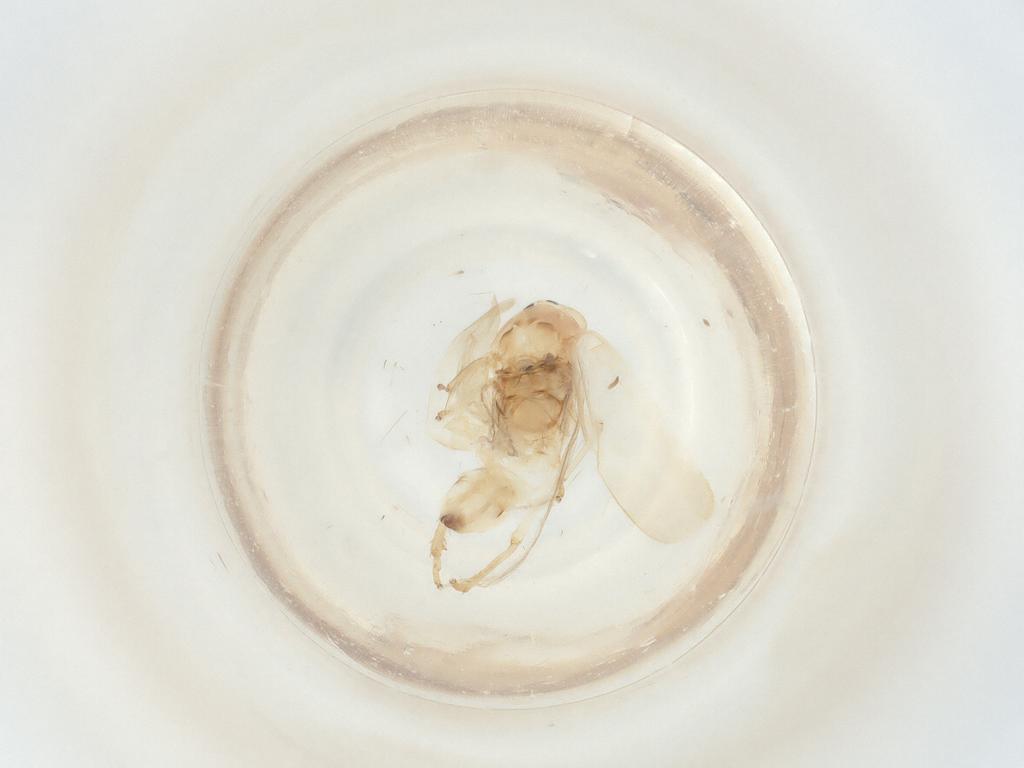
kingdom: Animalia
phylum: Arthropoda
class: Insecta
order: Hemiptera
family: Cicadellidae
